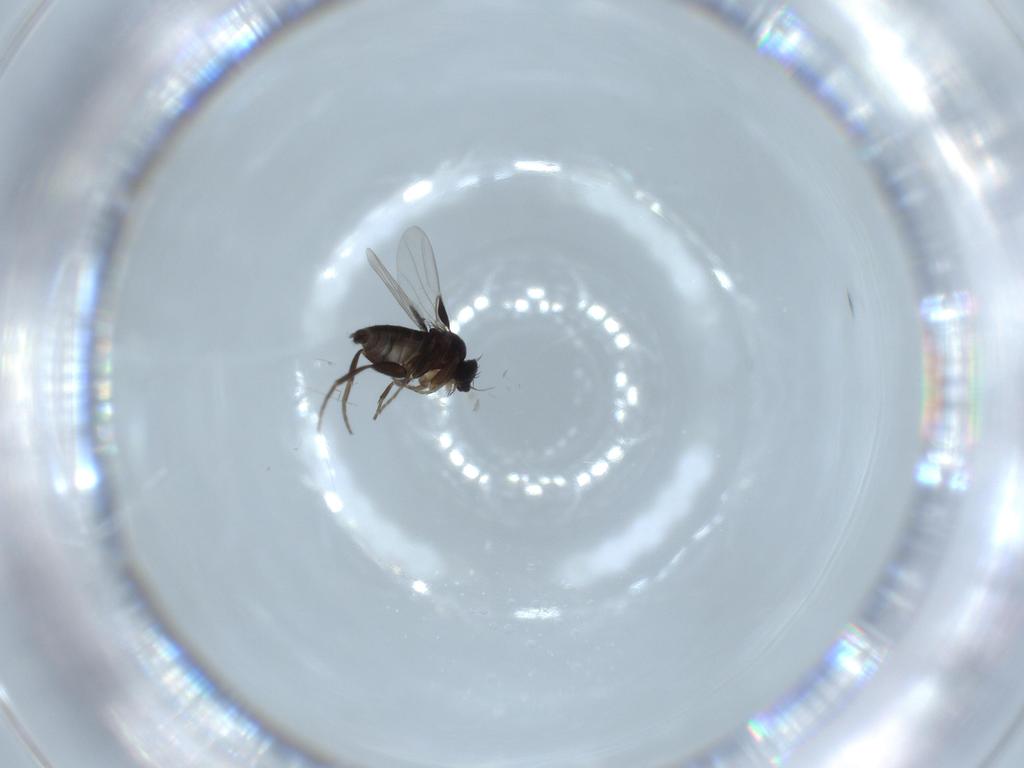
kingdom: Animalia
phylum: Arthropoda
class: Insecta
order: Diptera
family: Phoridae
